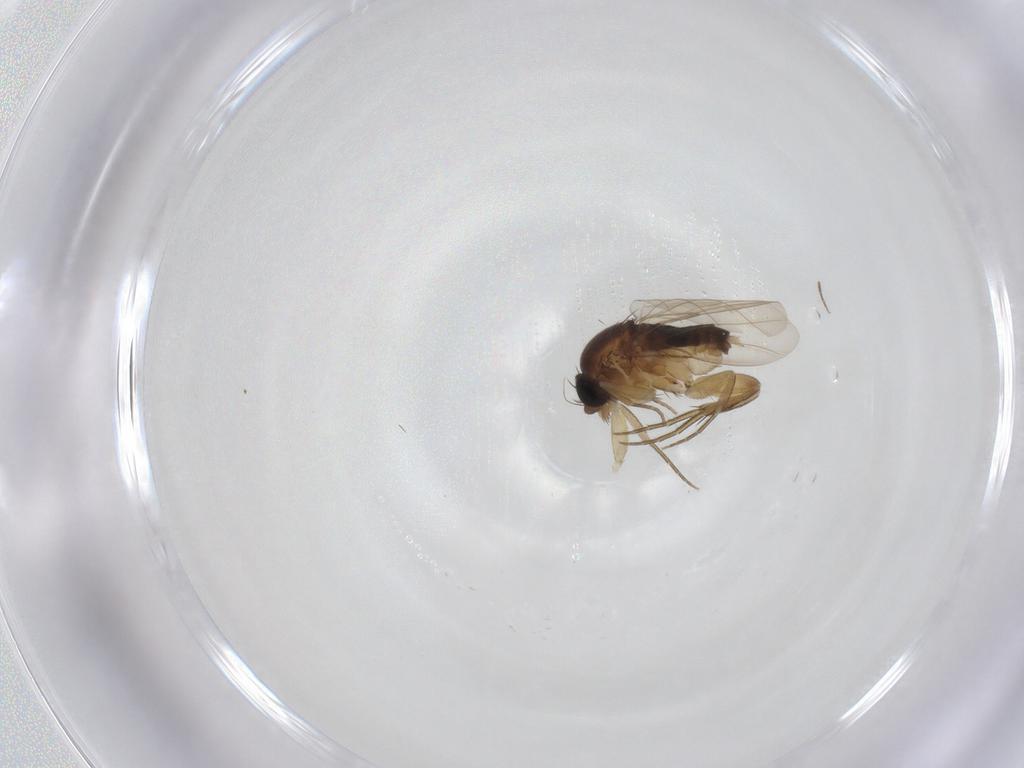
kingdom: Animalia
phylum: Arthropoda
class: Insecta
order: Diptera
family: Phoridae
